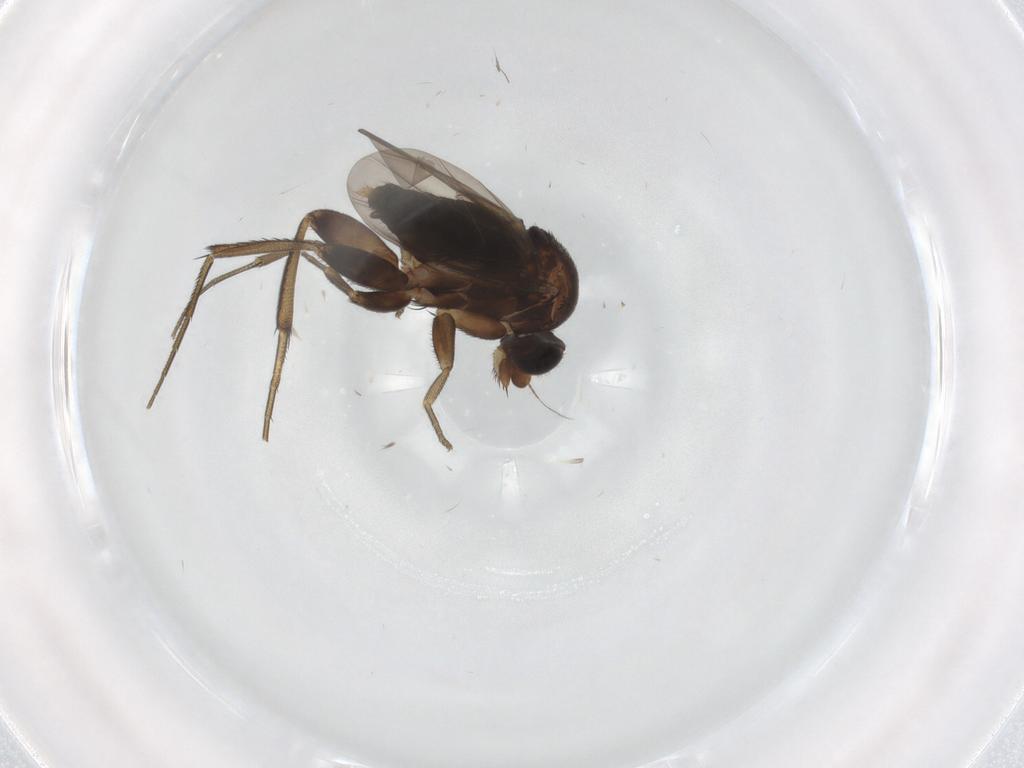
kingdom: Animalia
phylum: Arthropoda
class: Insecta
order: Diptera
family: Phoridae
